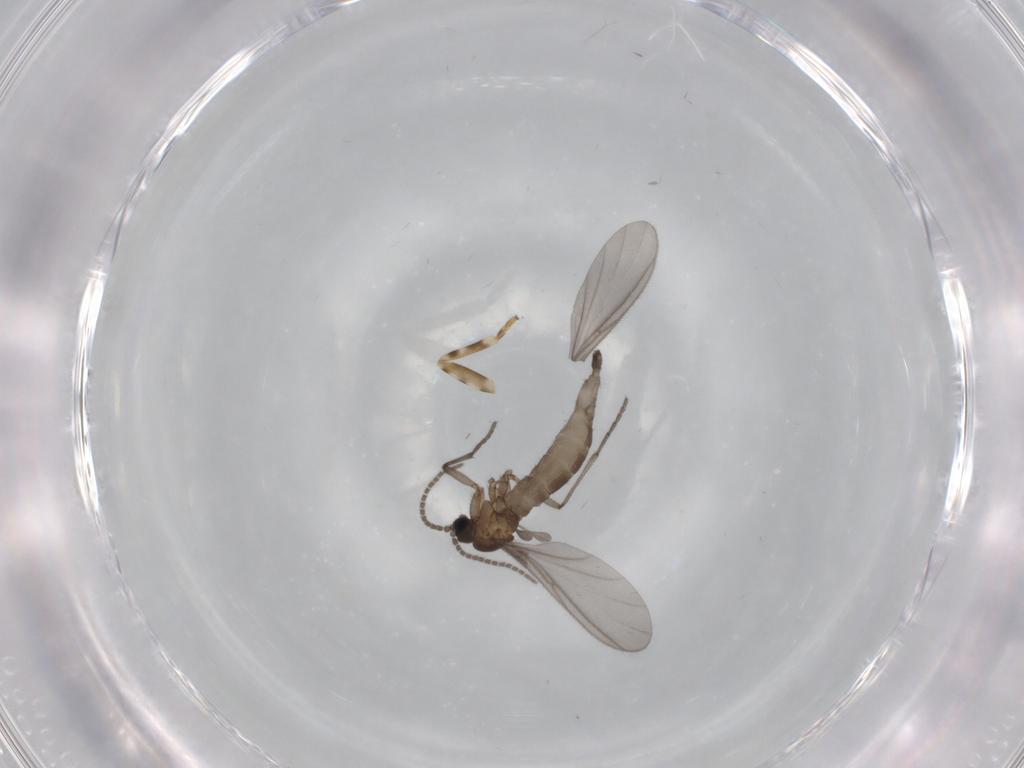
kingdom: Animalia
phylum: Arthropoda
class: Insecta
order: Diptera
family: Sciaridae
